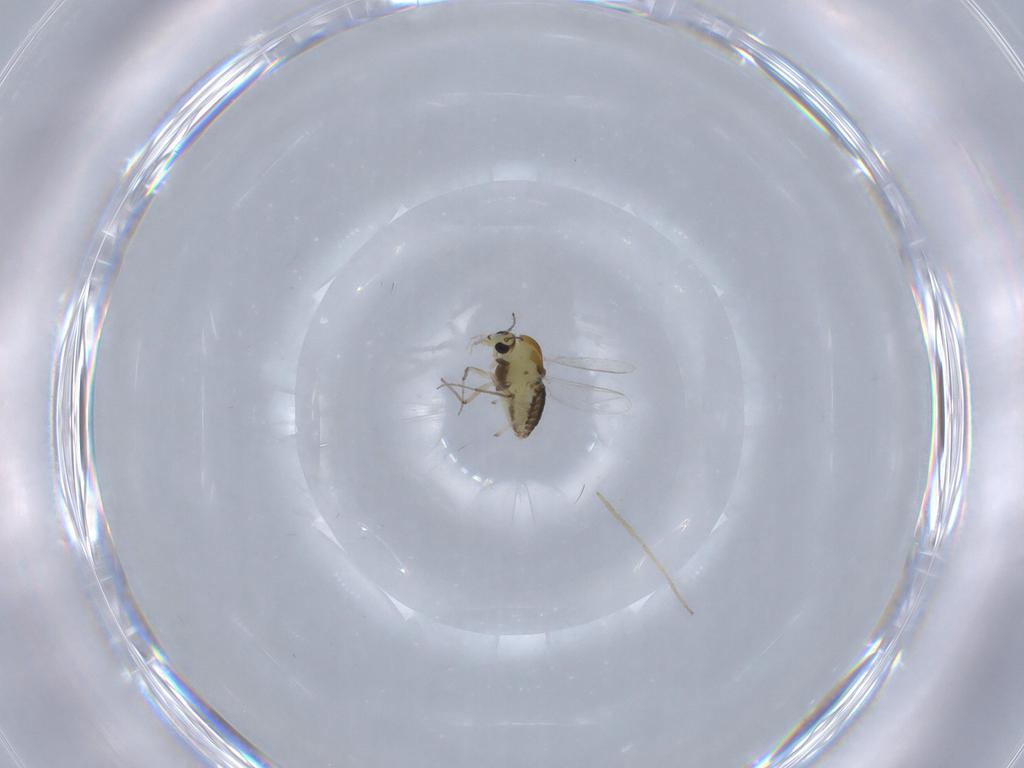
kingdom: Animalia
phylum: Arthropoda
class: Insecta
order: Diptera
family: Chironomidae
